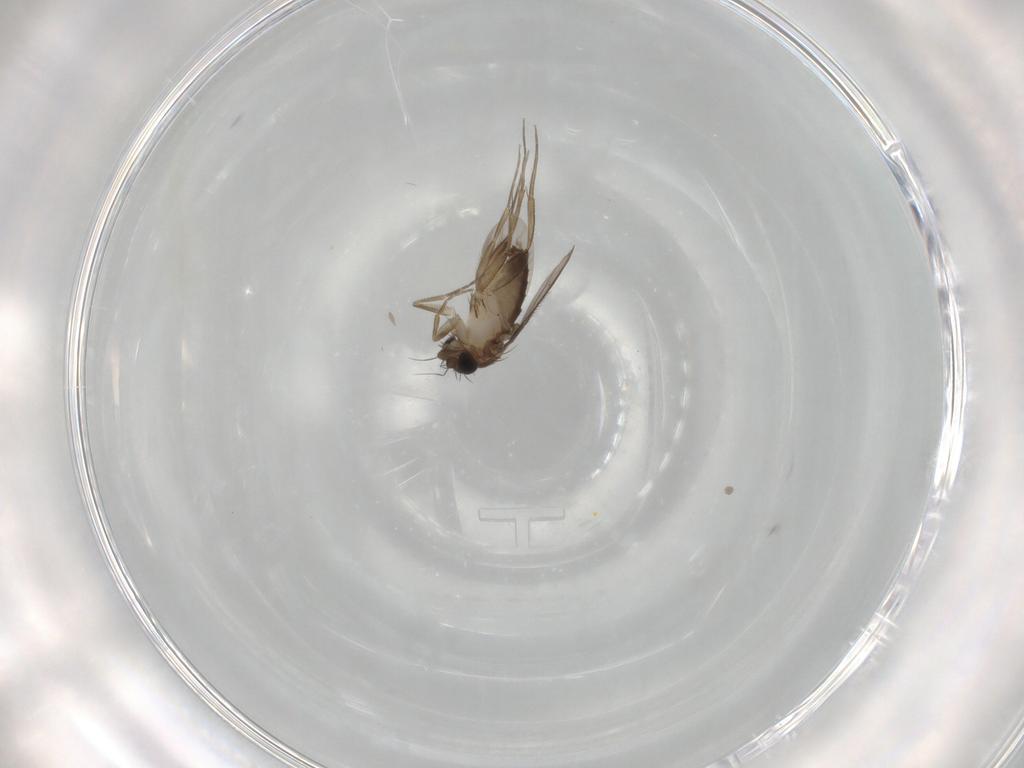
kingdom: Animalia
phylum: Arthropoda
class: Insecta
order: Diptera
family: Phoridae
